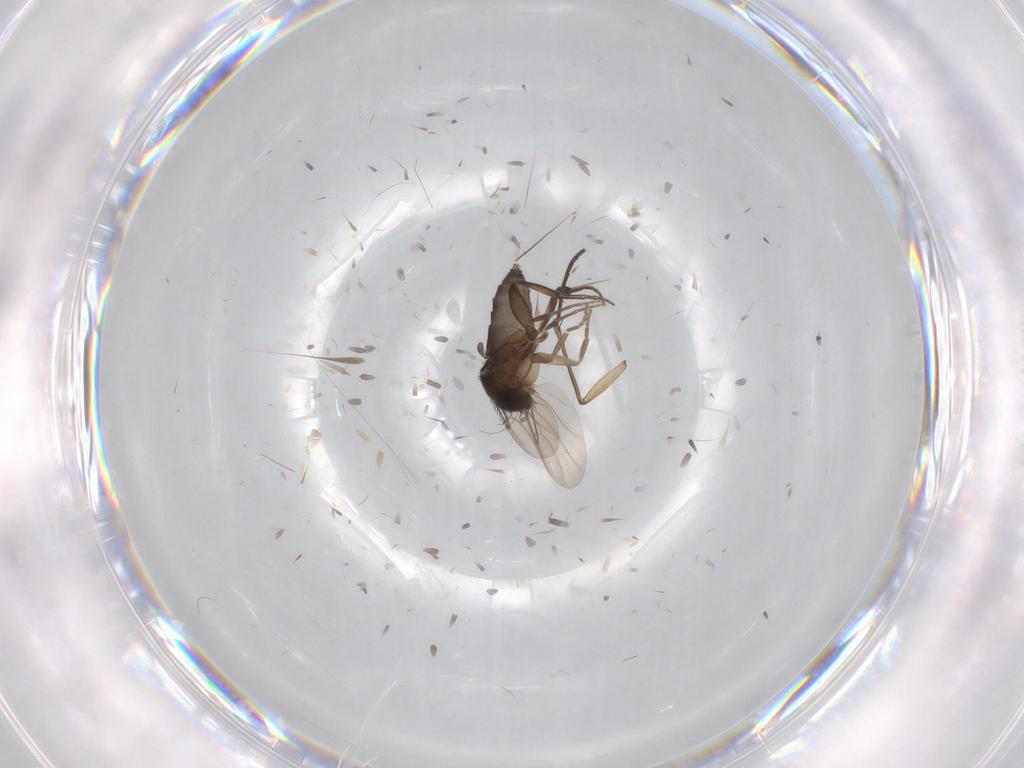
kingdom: Animalia
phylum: Arthropoda
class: Insecta
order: Diptera
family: Phoridae
